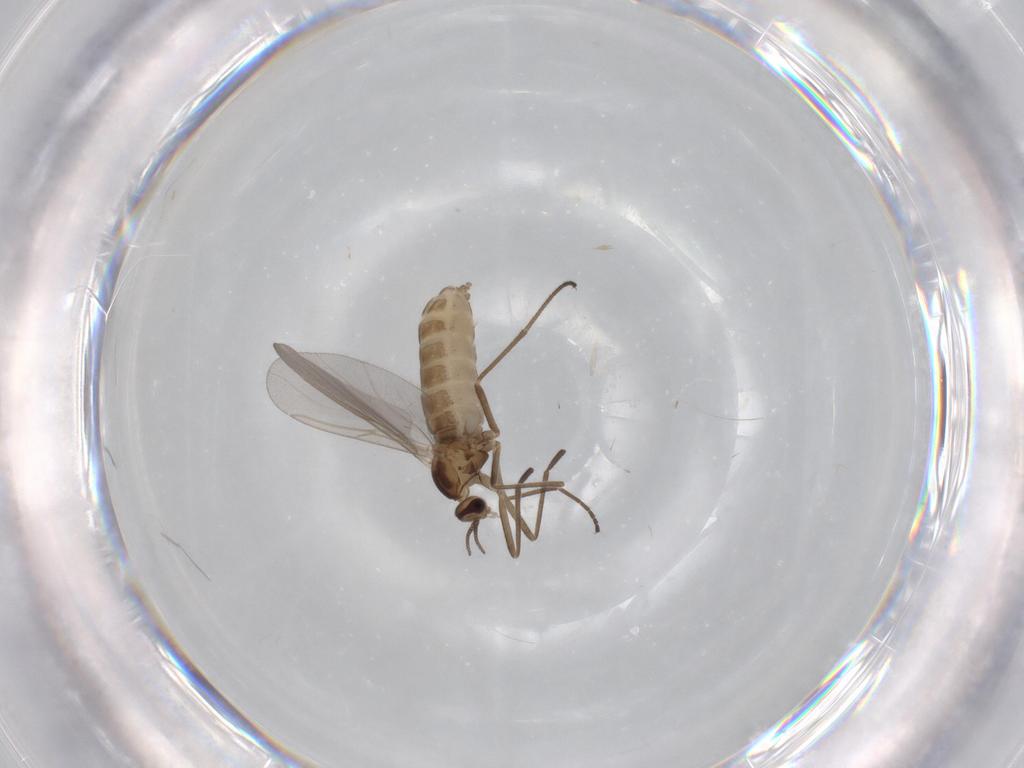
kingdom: Animalia
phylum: Arthropoda
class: Insecta
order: Diptera
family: Cecidomyiidae
